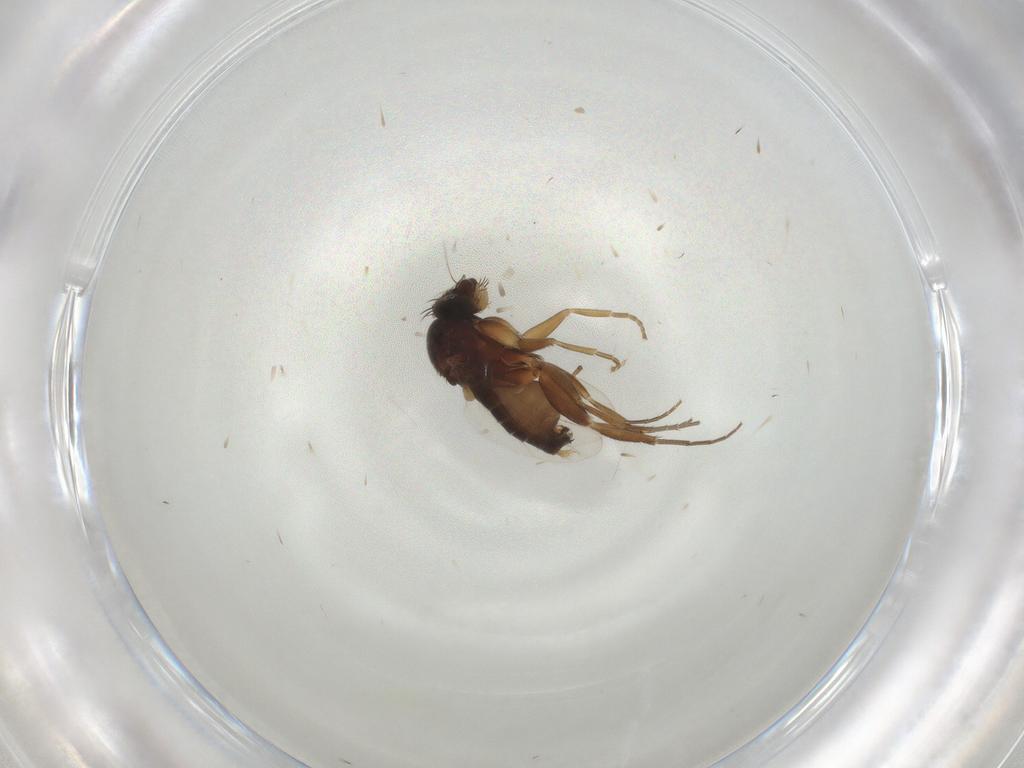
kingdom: Animalia
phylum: Arthropoda
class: Insecta
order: Diptera
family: Phoridae
